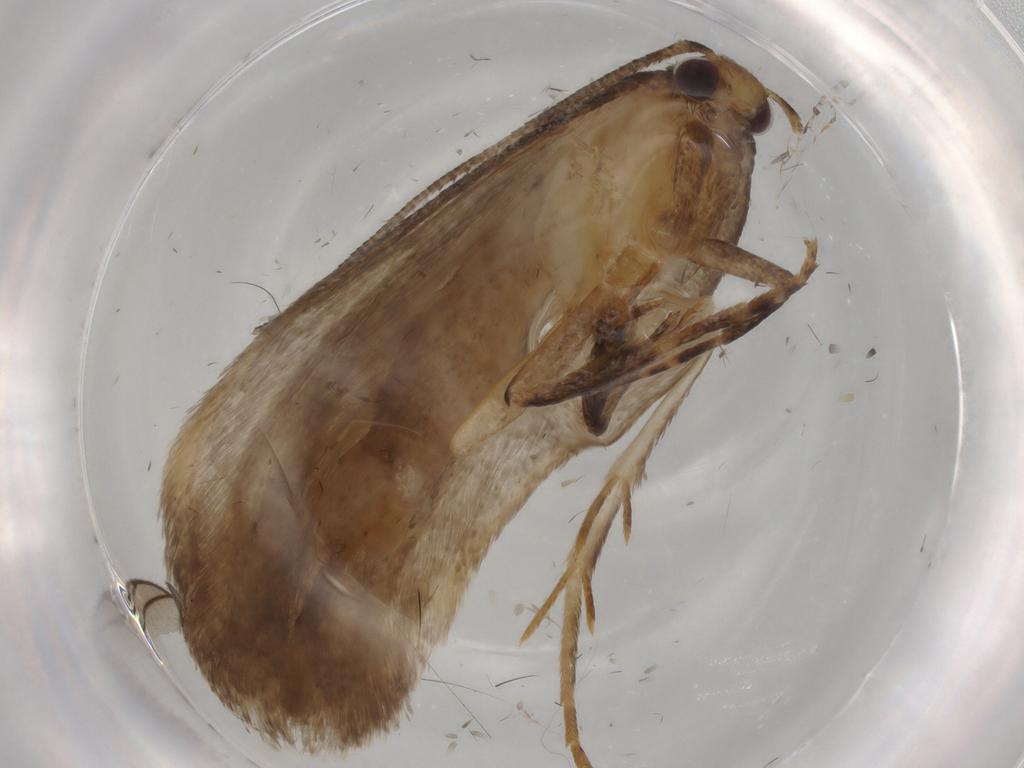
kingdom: Animalia
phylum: Arthropoda
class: Insecta
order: Lepidoptera
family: Gelechiidae
